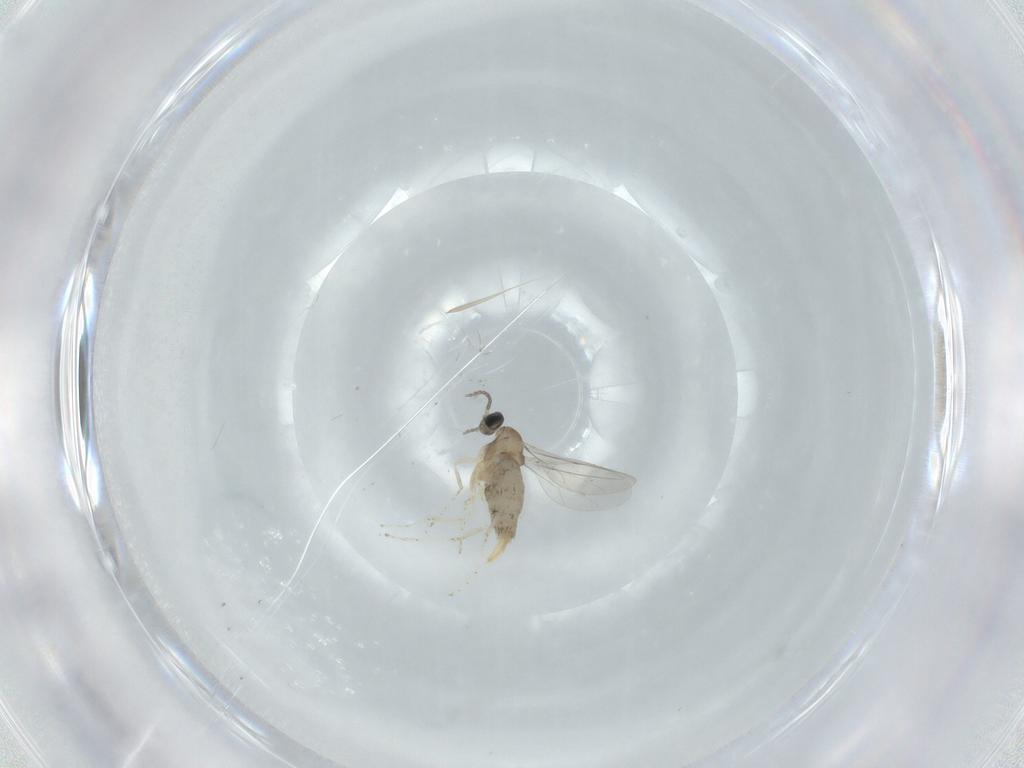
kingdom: Animalia
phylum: Arthropoda
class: Insecta
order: Diptera
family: Cecidomyiidae
